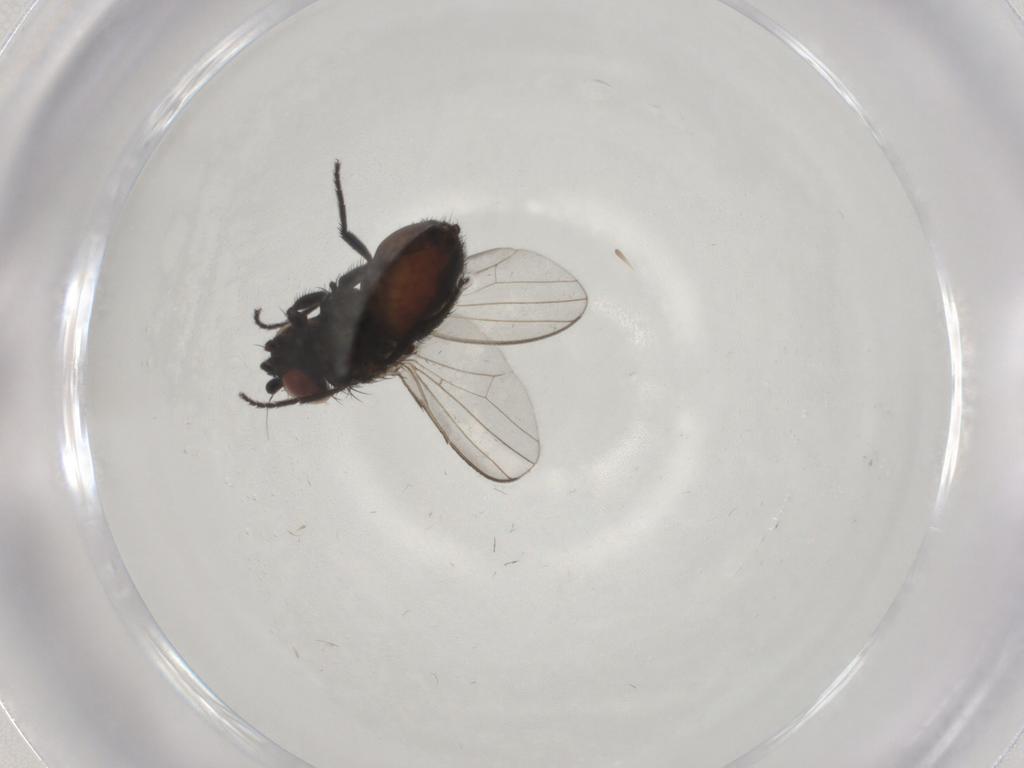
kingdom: Animalia
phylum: Arthropoda
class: Insecta
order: Diptera
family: Milichiidae
